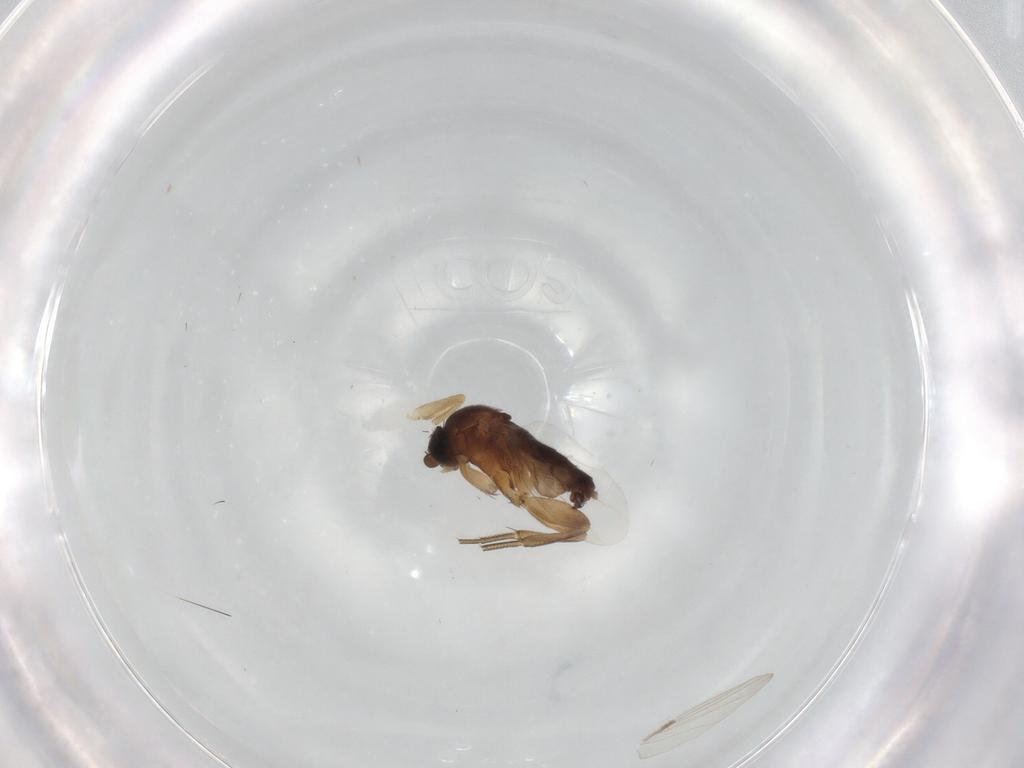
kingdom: Animalia
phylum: Arthropoda
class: Insecta
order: Diptera
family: Phoridae
